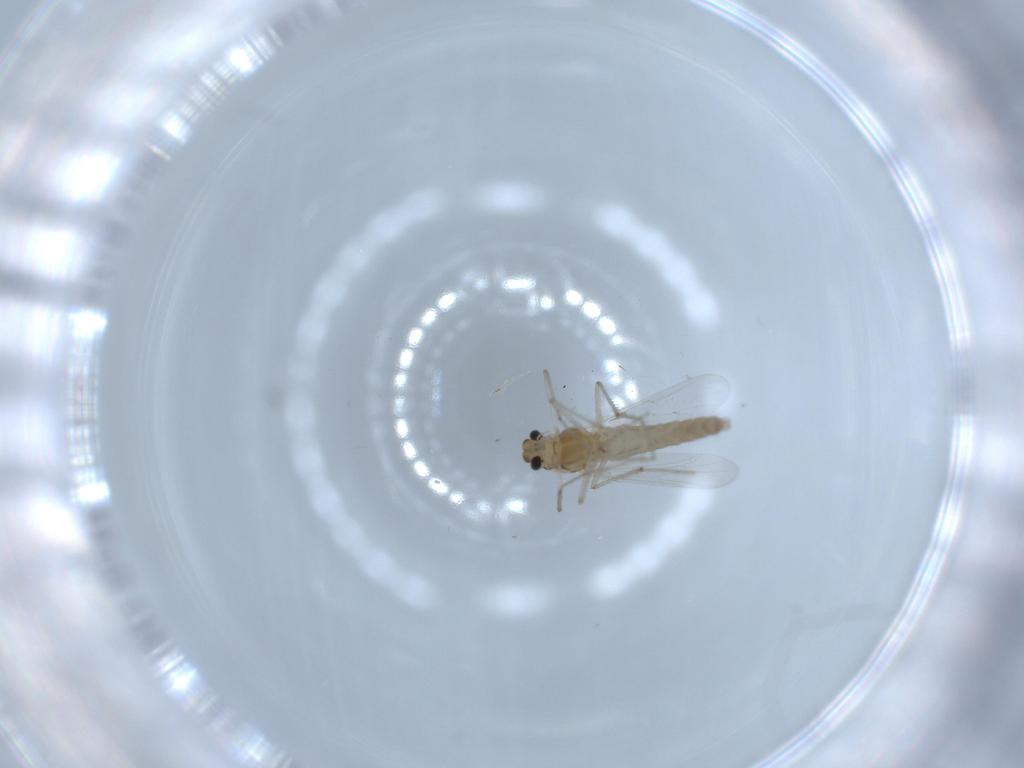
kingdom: Animalia
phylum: Arthropoda
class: Insecta
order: Diptera
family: Chironomidae
